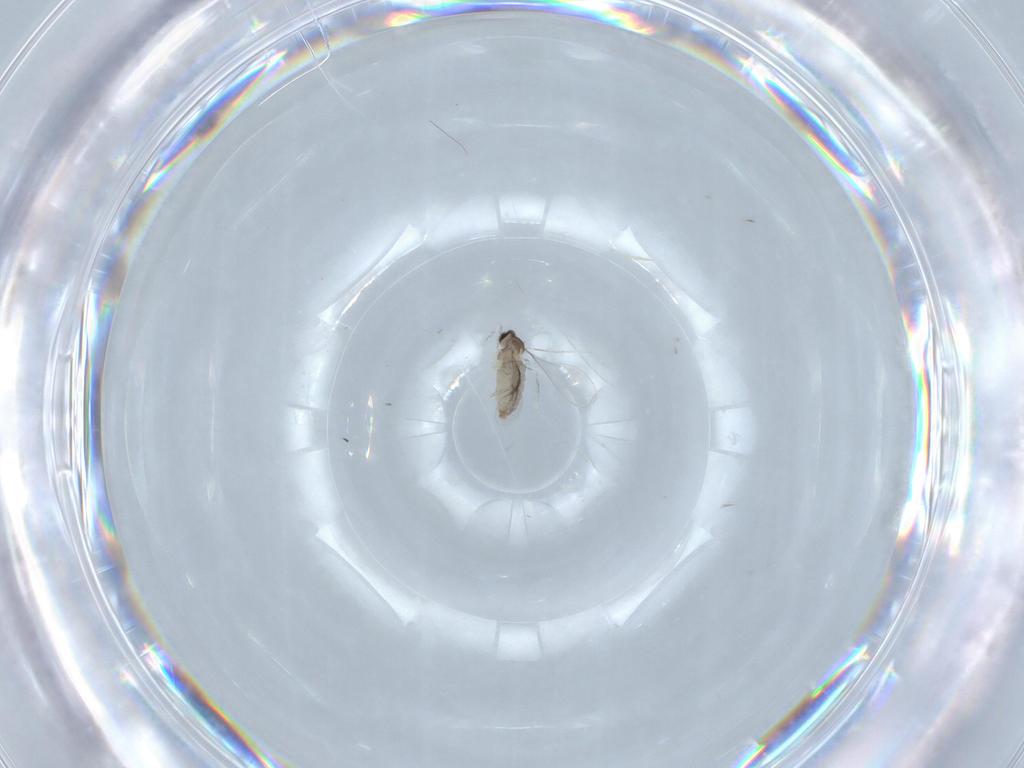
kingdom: Animalia
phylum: Arthropoda
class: Insecta
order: Diptera
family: Sciaridae
